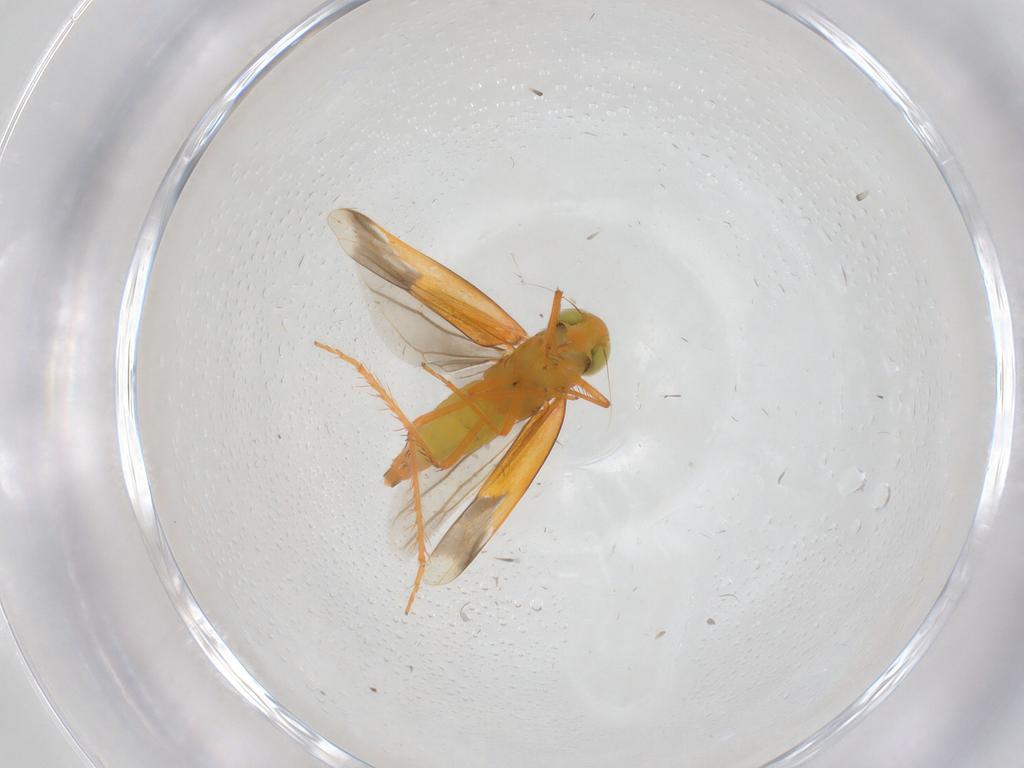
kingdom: Animalia
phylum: Arthropoda
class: Insecta
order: Hemiptera
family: Cicadellidae
